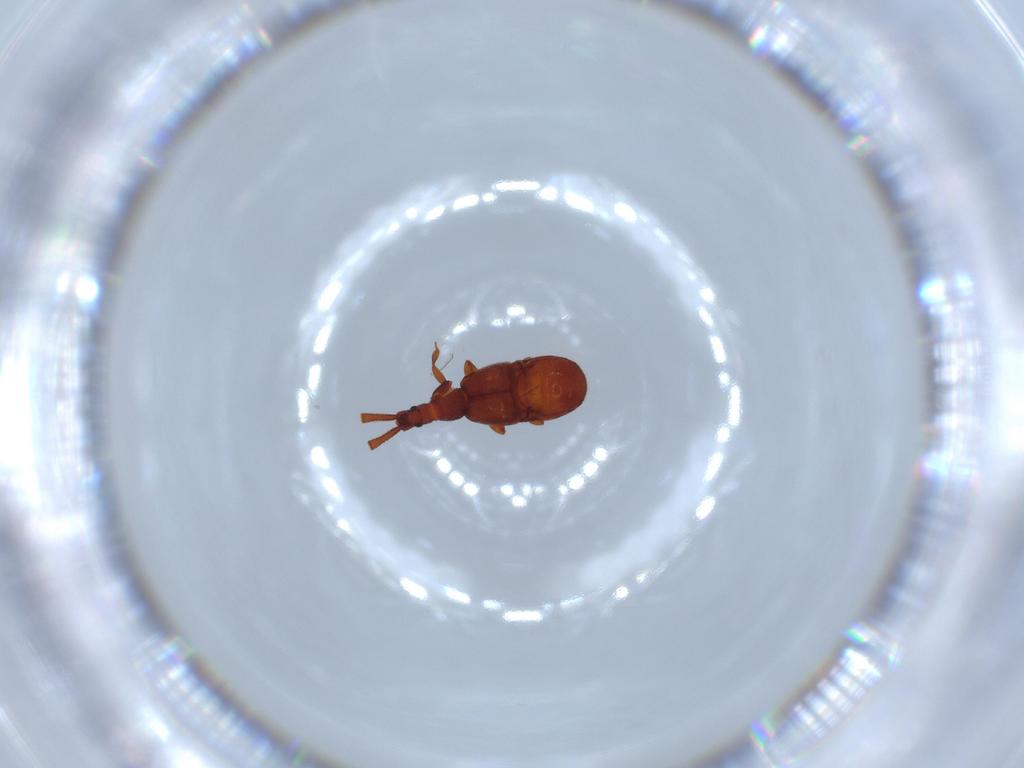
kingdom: Animalia
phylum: Arthropoda
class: Insecta
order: Coleoptera
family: Staphylinidae
